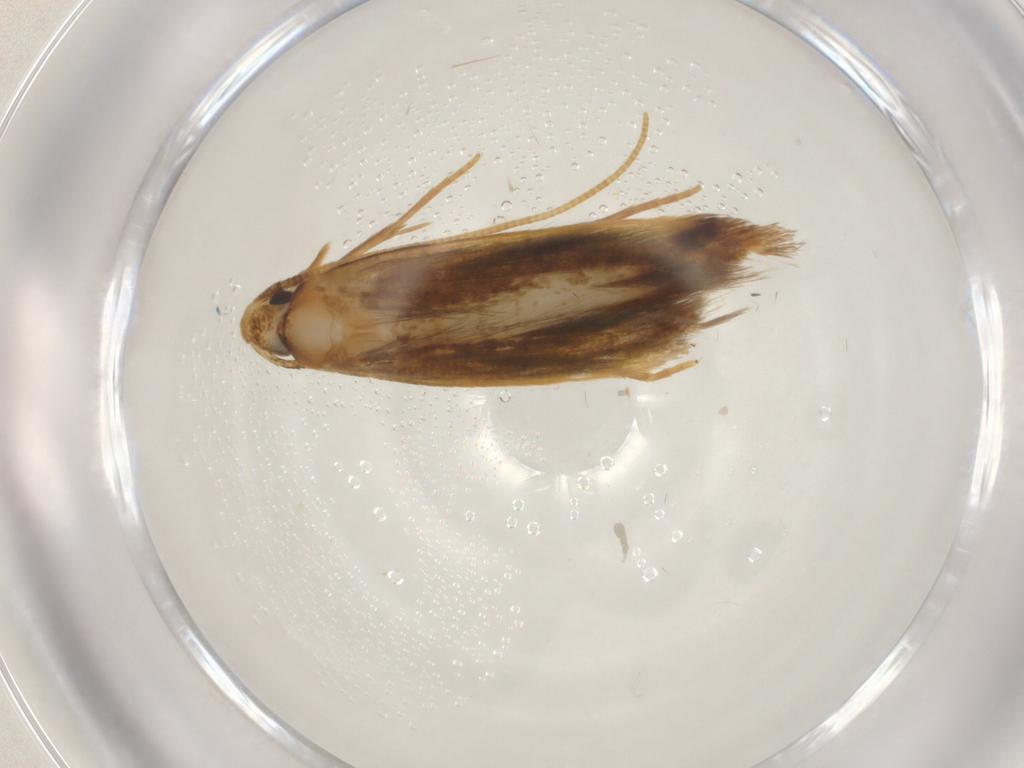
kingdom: Animalia
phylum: Arthropoda
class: Insecta
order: Lepidoptera
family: Tineidae
